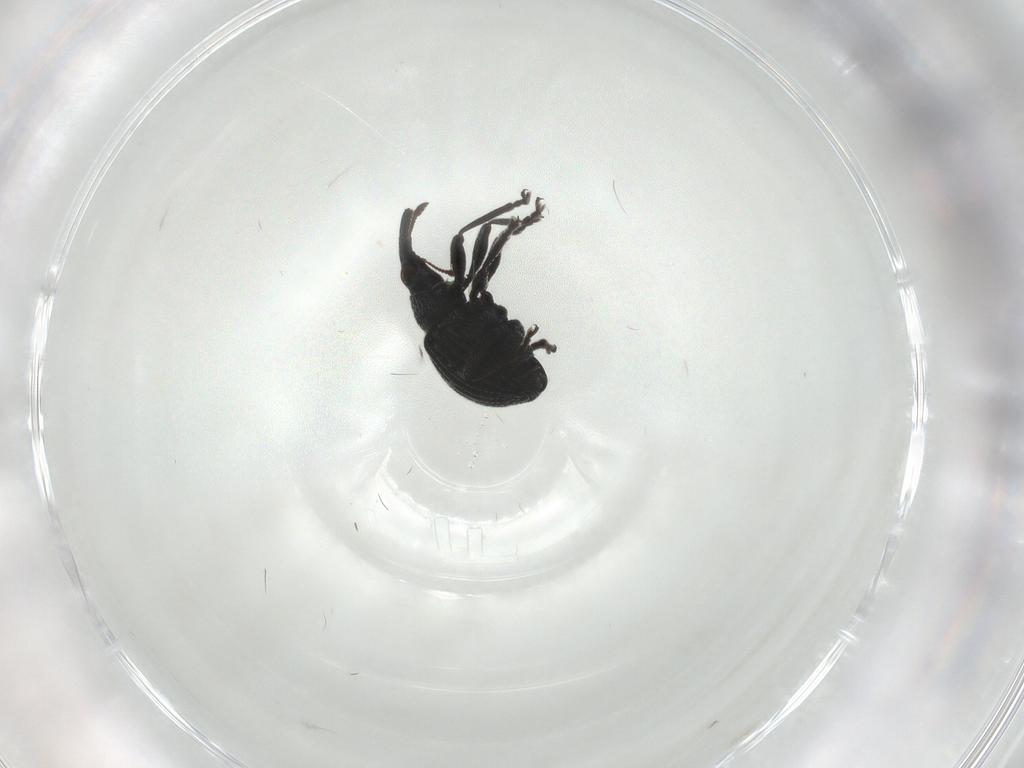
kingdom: Animalia
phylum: Arthropoda
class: Insecta
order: Coleoptera
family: Brentidae
